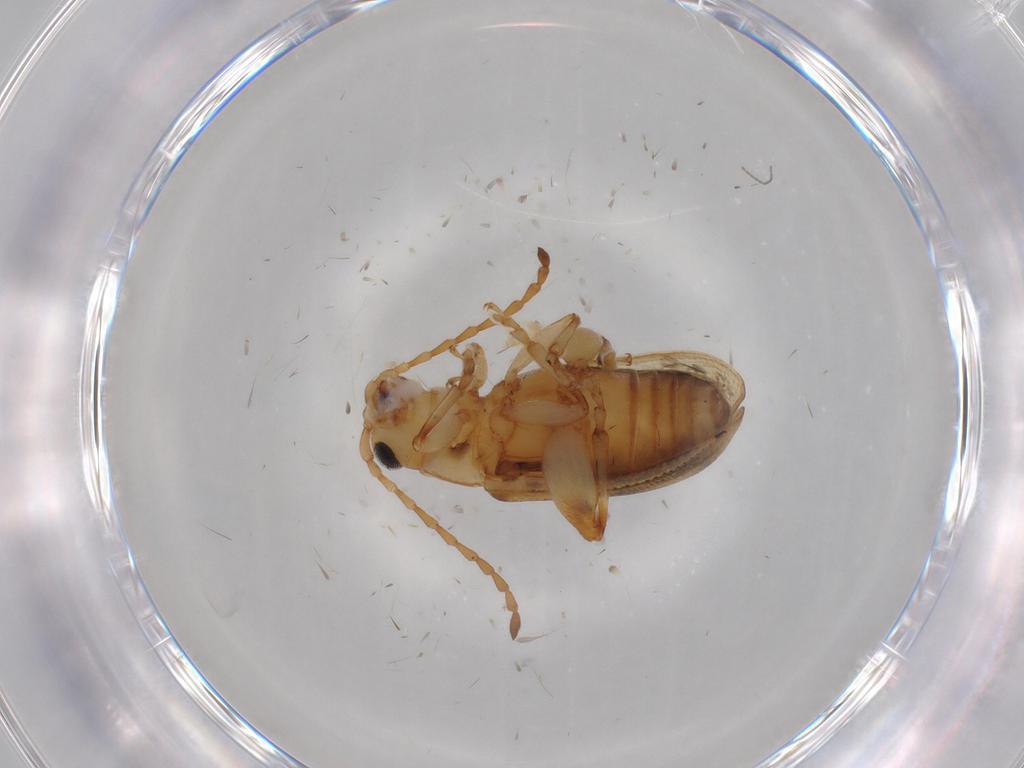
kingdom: Animalia
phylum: Arthropoda
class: Insecta
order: Coleoptera
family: Chrysomelidae
